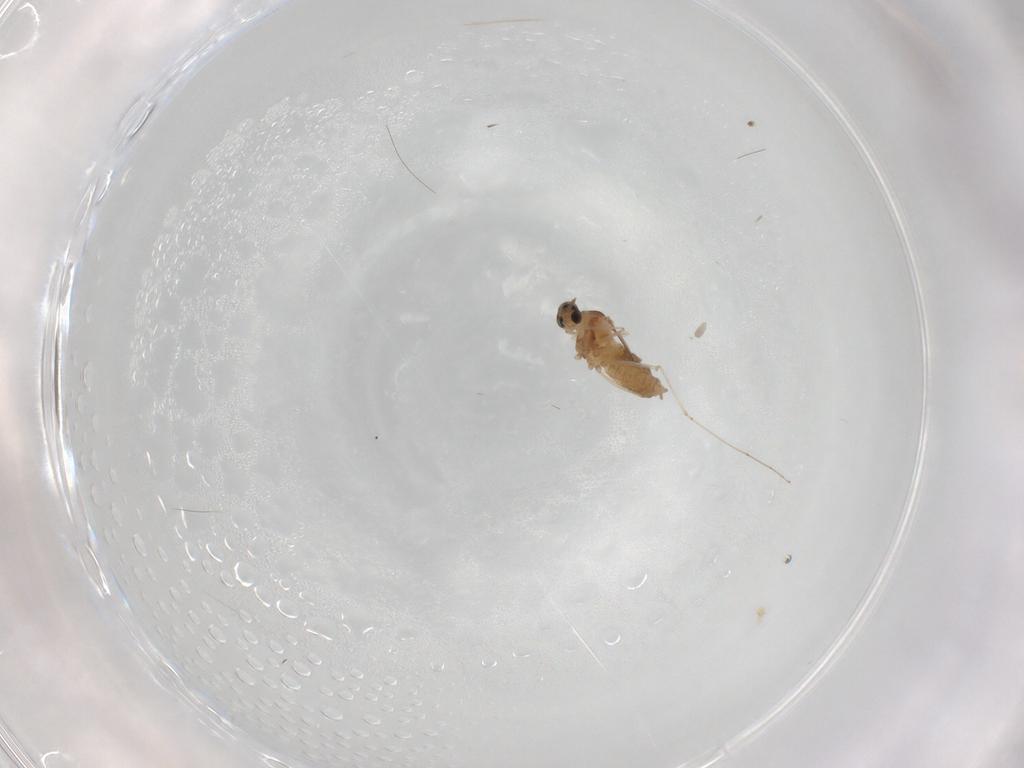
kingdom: Animalia
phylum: Arthropoda
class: Insecta
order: Diptera
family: Cecidomyiidae
